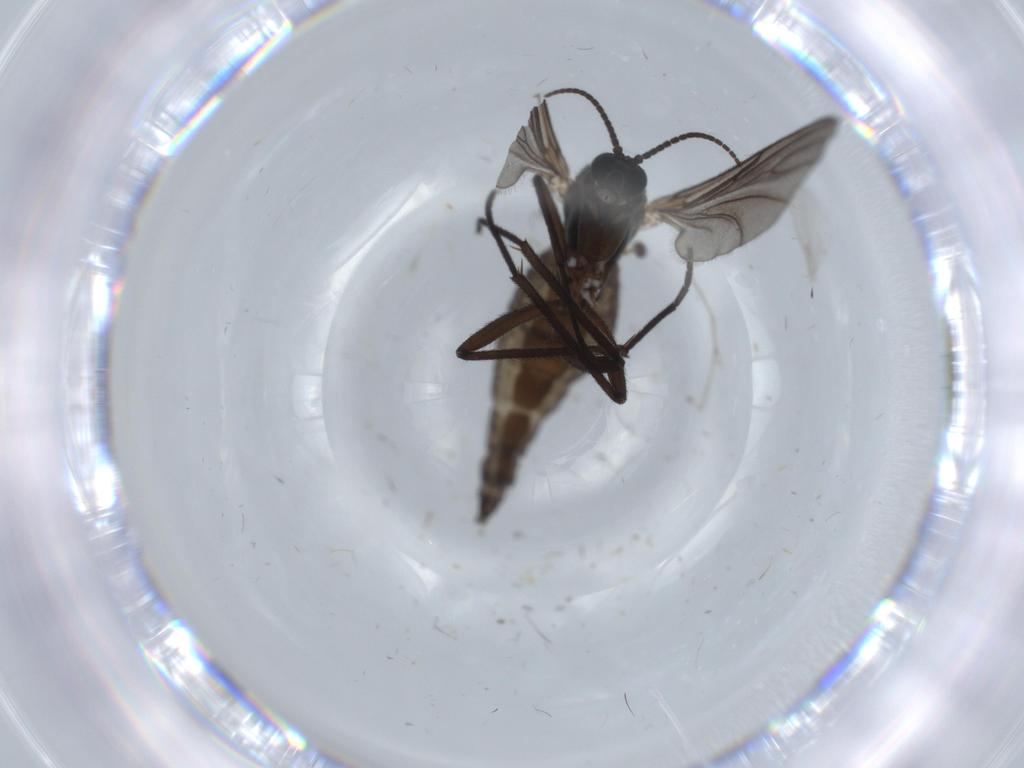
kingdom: Animalia
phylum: Arthropoda
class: Insecta
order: Diptera
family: Sciaridae
